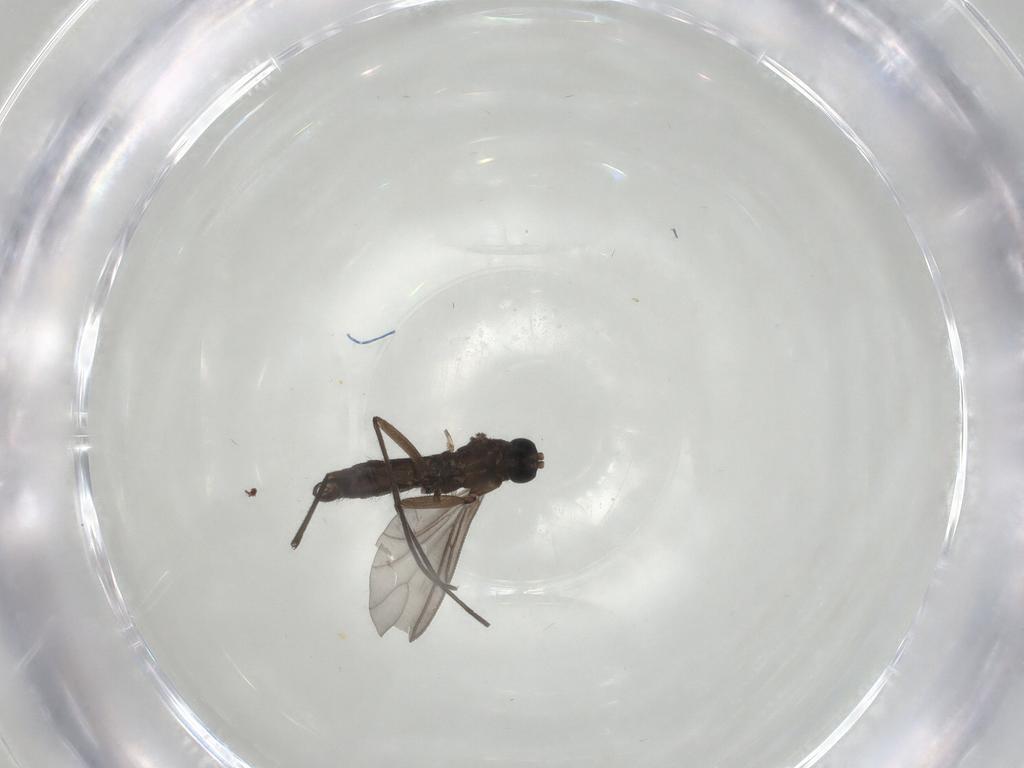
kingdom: Animalia
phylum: Arthropoda
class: Insecta
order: Diptera
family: Chironomidae
